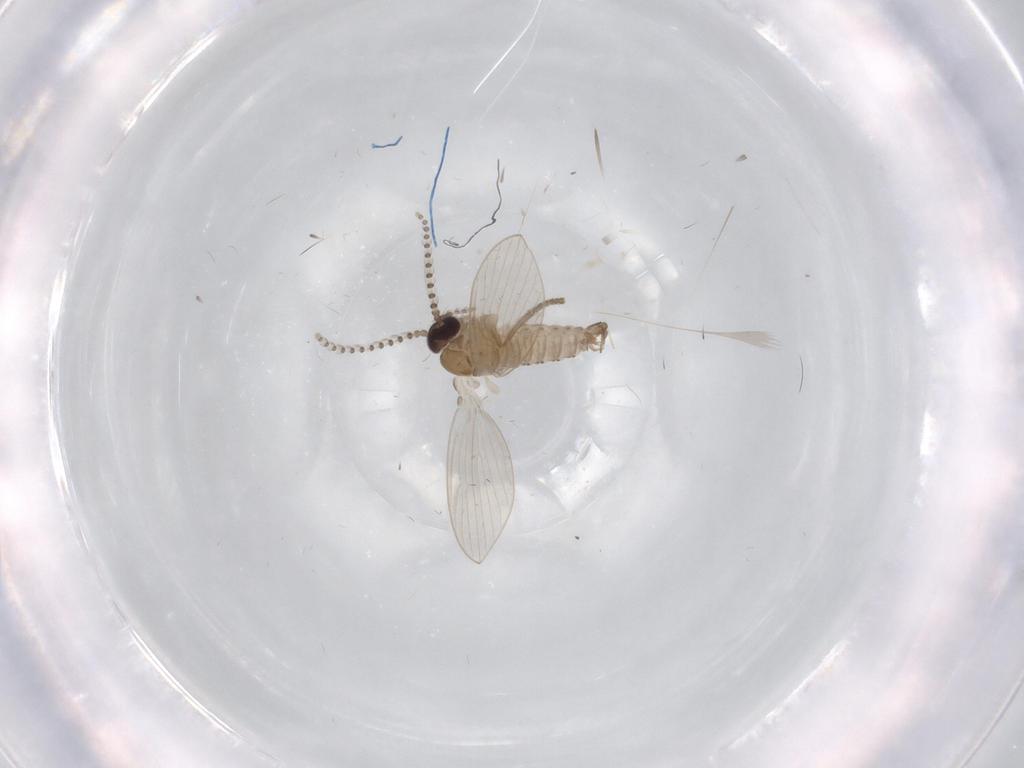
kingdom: Animalia
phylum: Arthropoda
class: Insecta
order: Diptera
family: Psychodidae
